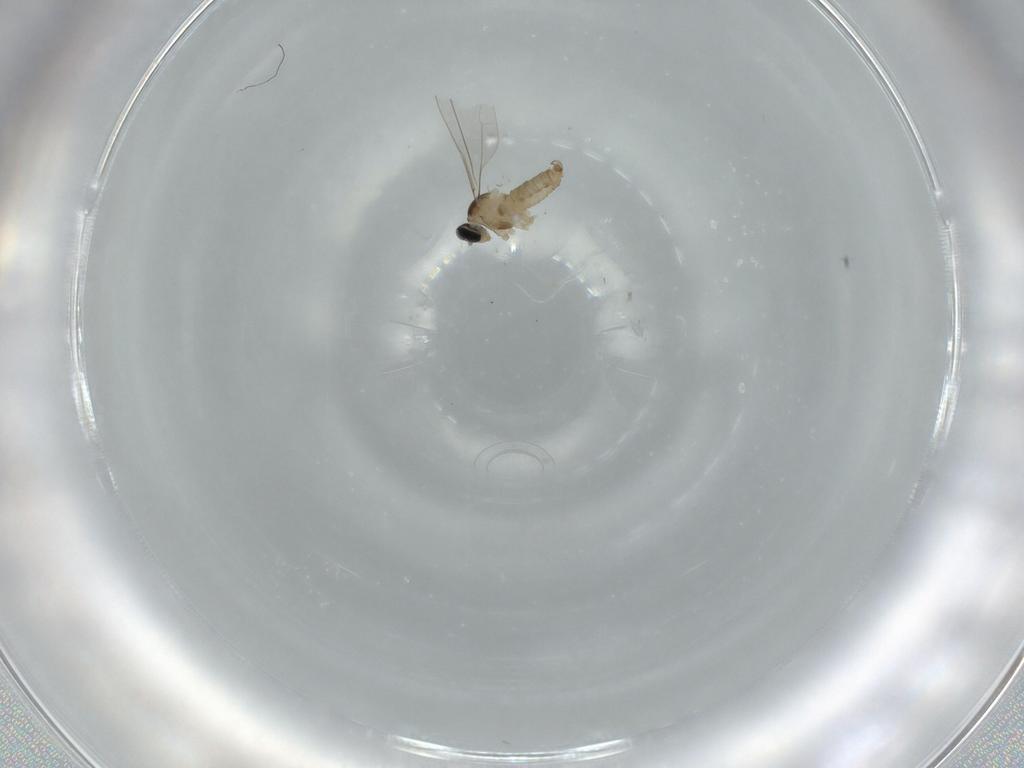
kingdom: Animalia
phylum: Arthropoda
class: Insecta
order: Diptera
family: Cecidomyiidae
